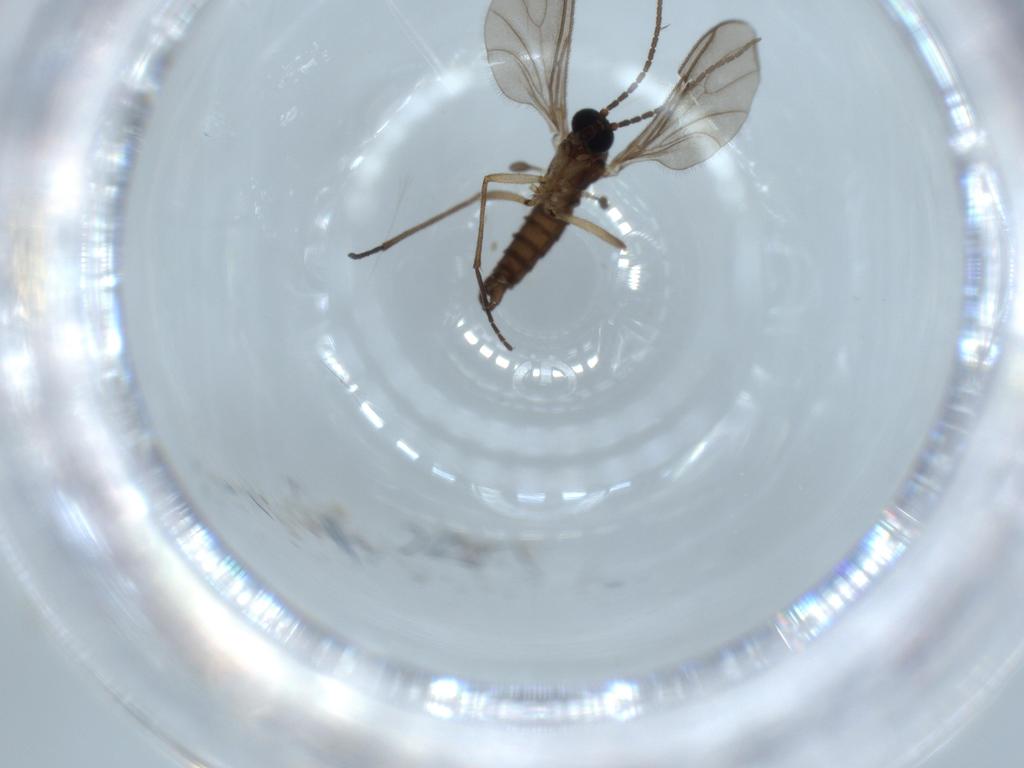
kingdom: Animalia
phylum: Arthropoda
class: Insecta
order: Diptera
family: Sciaridae
